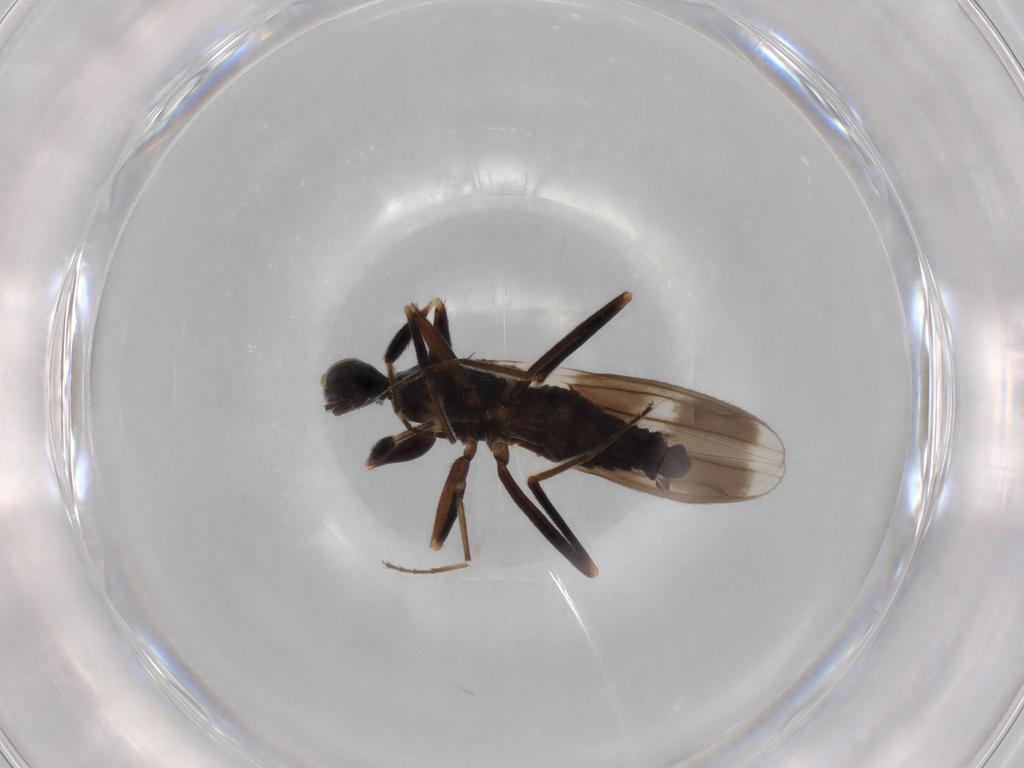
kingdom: Animalia
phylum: Arthropoda
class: Insecta
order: Diptera
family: Hybotidae
